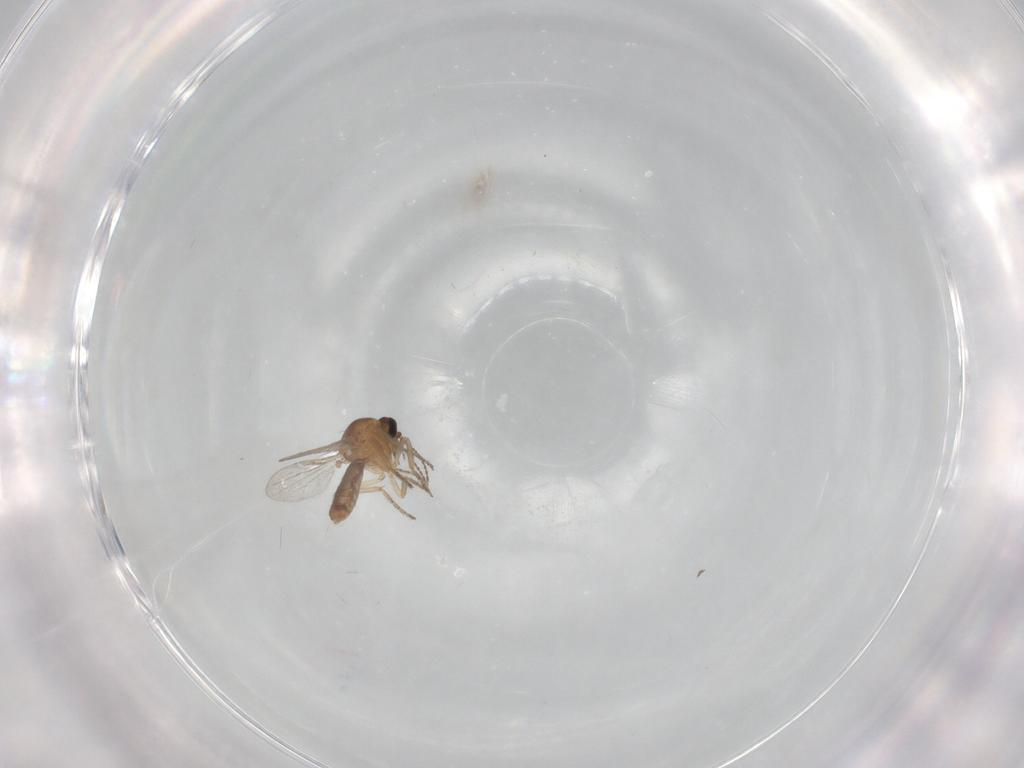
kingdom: Animalia
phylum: Arthropoda
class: Insecta
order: Diptera
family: Ceratopogonidae
